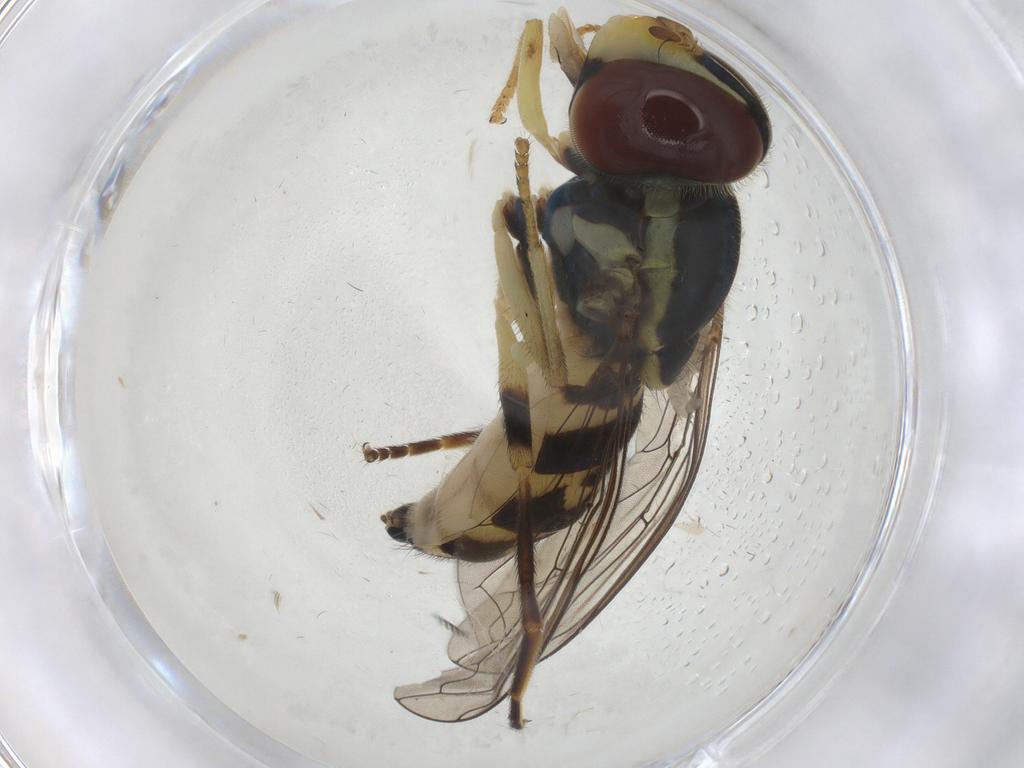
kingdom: Animalia
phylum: Arthropoda
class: Insecta
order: Diptera
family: Syrphidae
